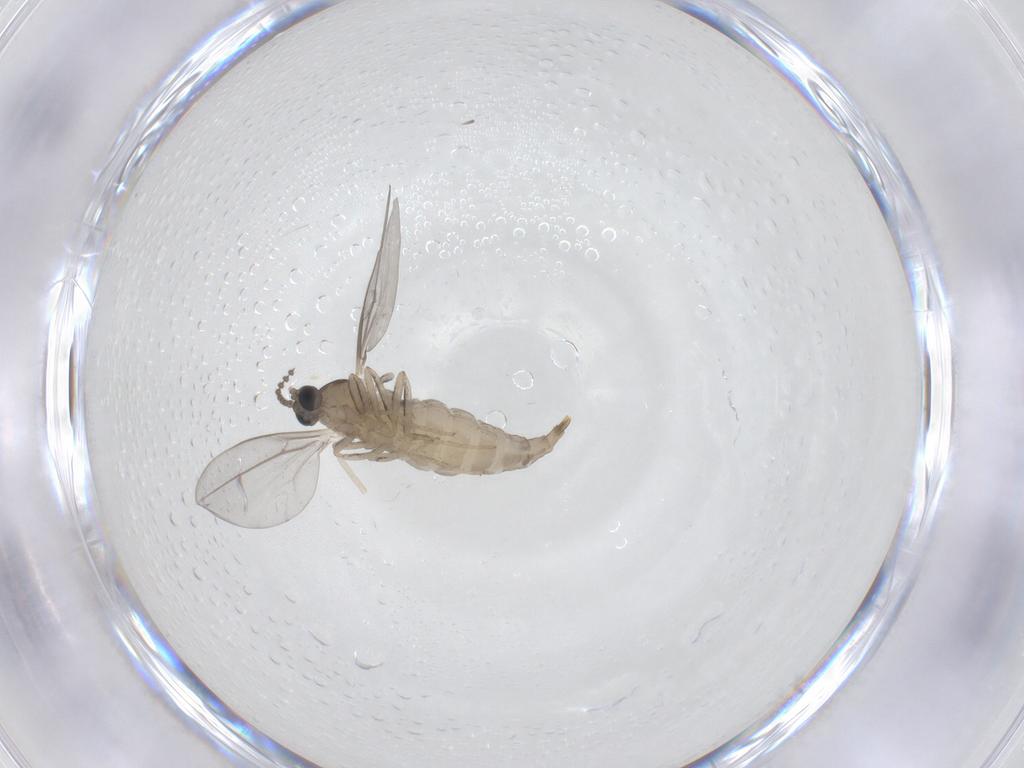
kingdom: Animalia
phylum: Arthropoda
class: Insecta
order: Diptera
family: Cecidomyiidae
